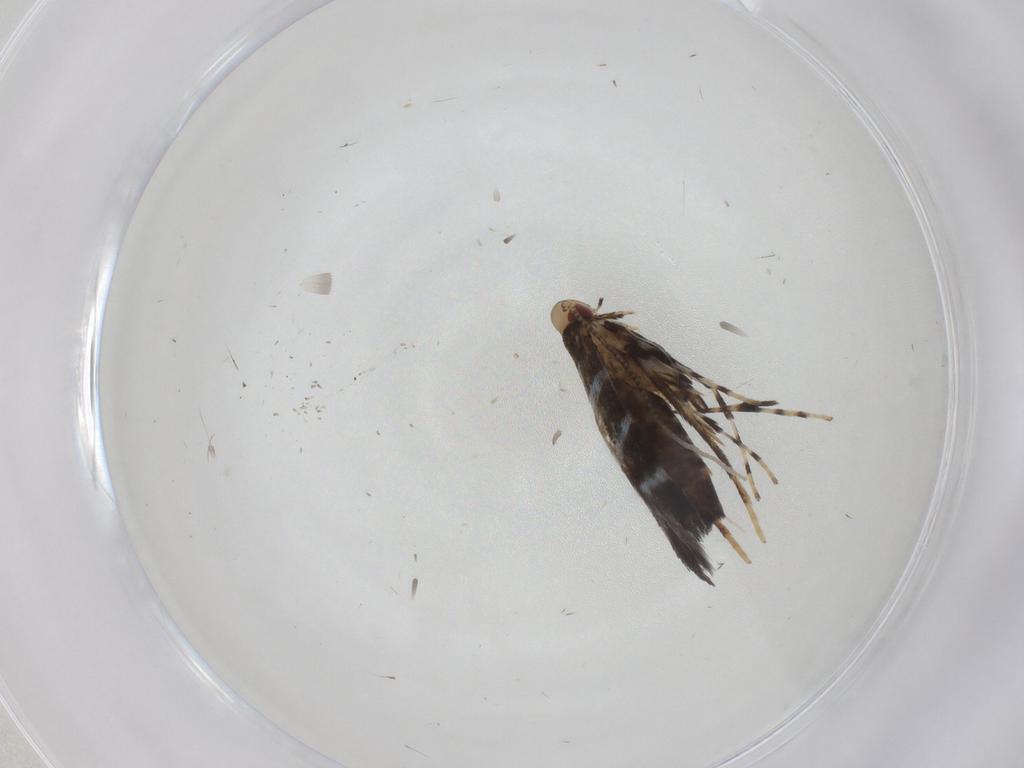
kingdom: Animalia
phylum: Arthropoda
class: Insecta
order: Lepidoptera
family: Gracillariidae
